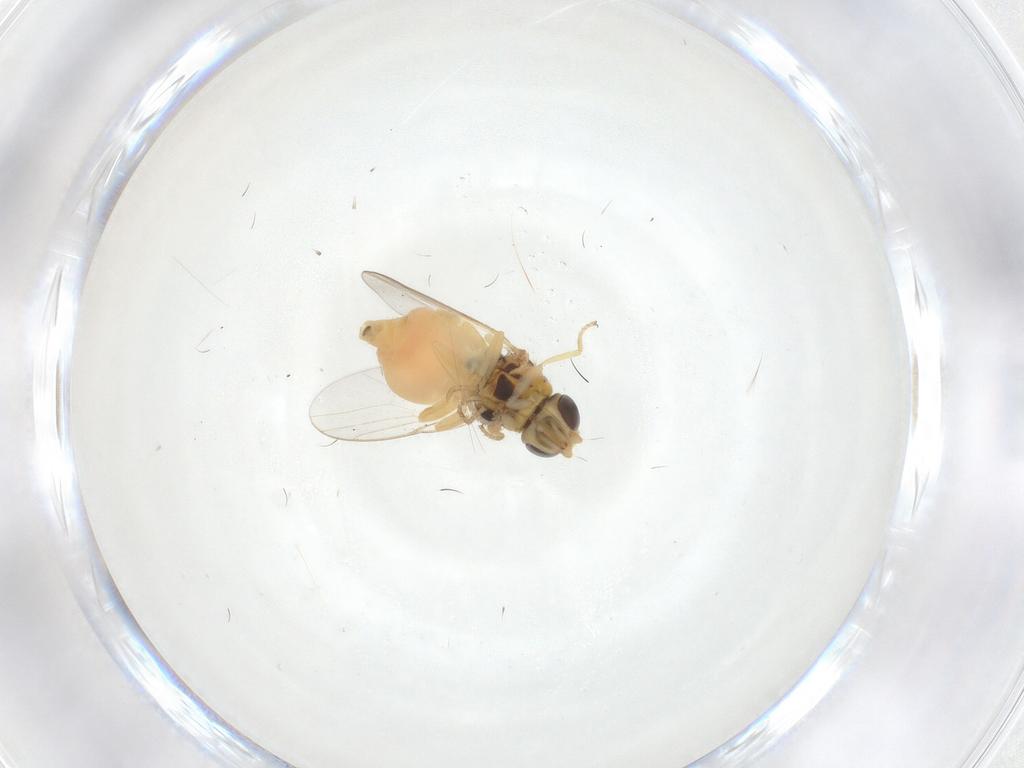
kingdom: Animalia
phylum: Arthropoda
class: Insecta
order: Diptera
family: Chloropidae
